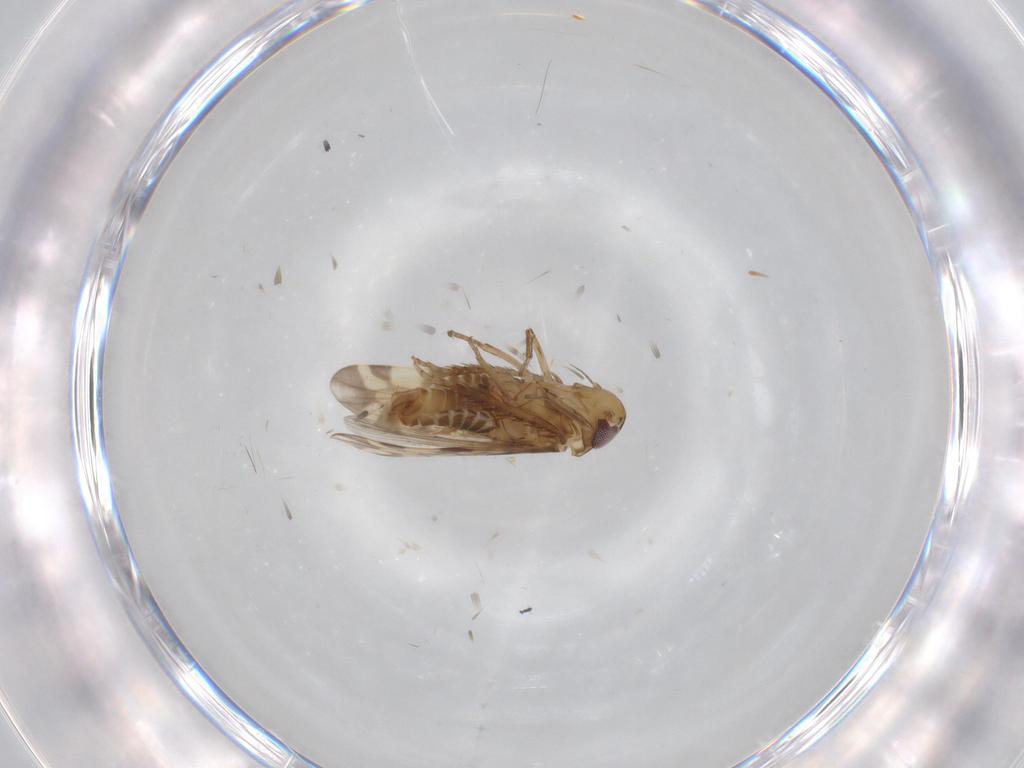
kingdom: Animalia
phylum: Arthropoda
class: Insecta
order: Hemiptera
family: Cicadellidae
